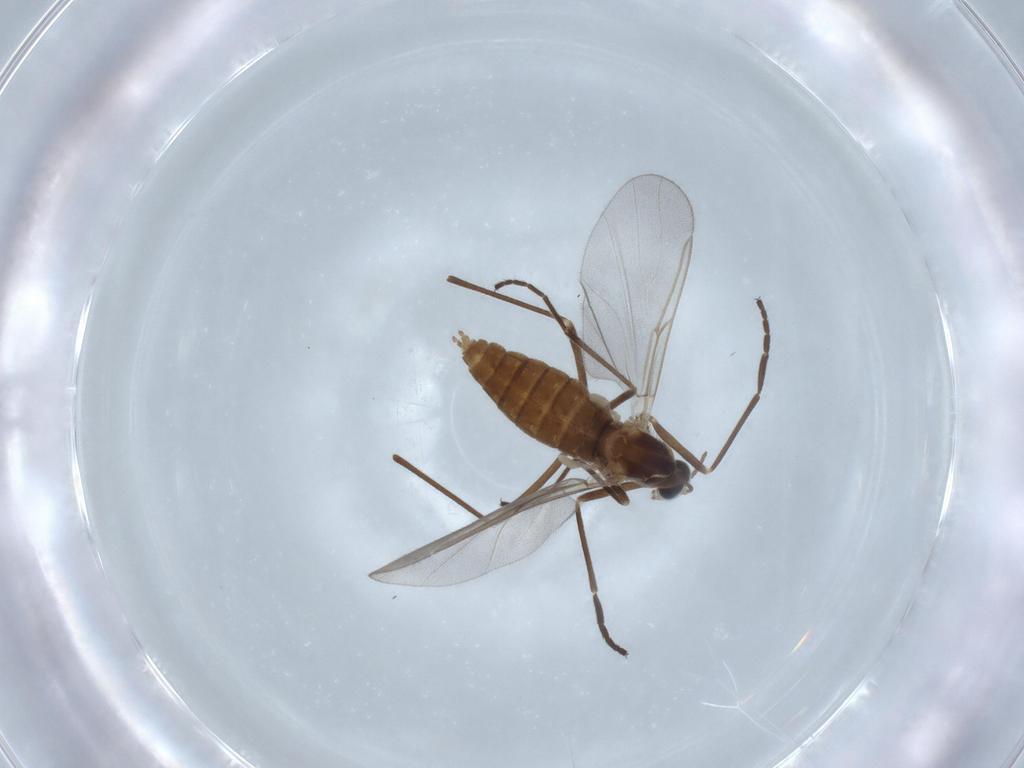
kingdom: Animalia
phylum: Arthropoda
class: Insecta
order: Diptera
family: Cecidomyiidae
